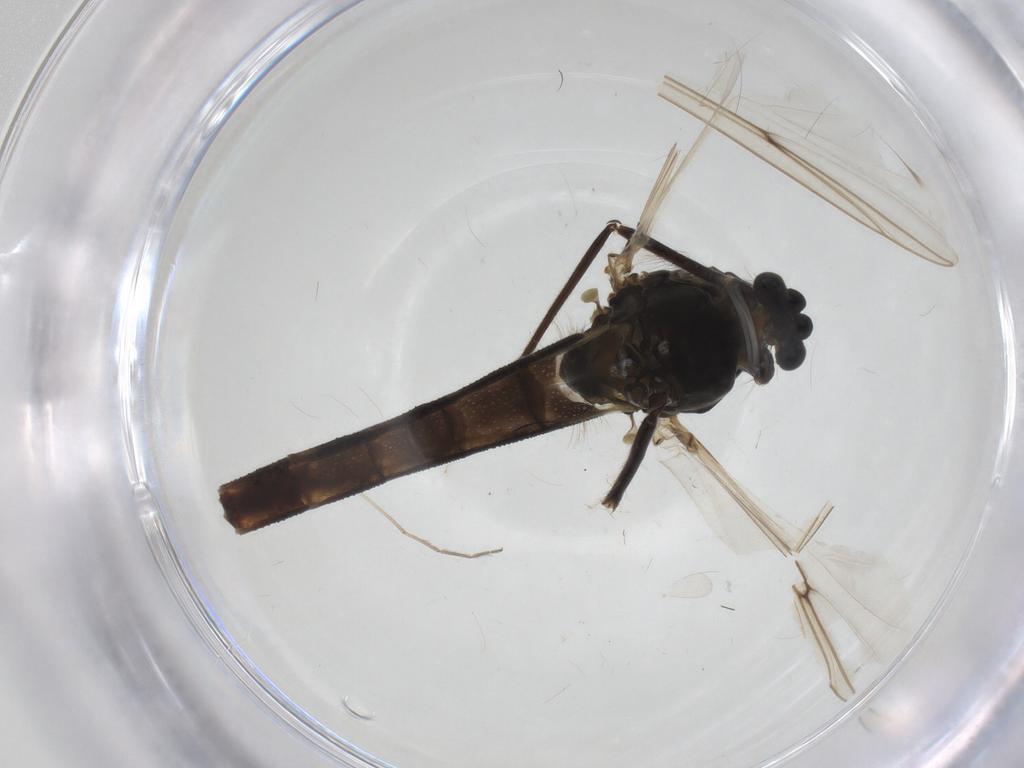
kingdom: Animalia
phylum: Arthropoda
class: Insecta
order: Diptera
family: Chironomidae
